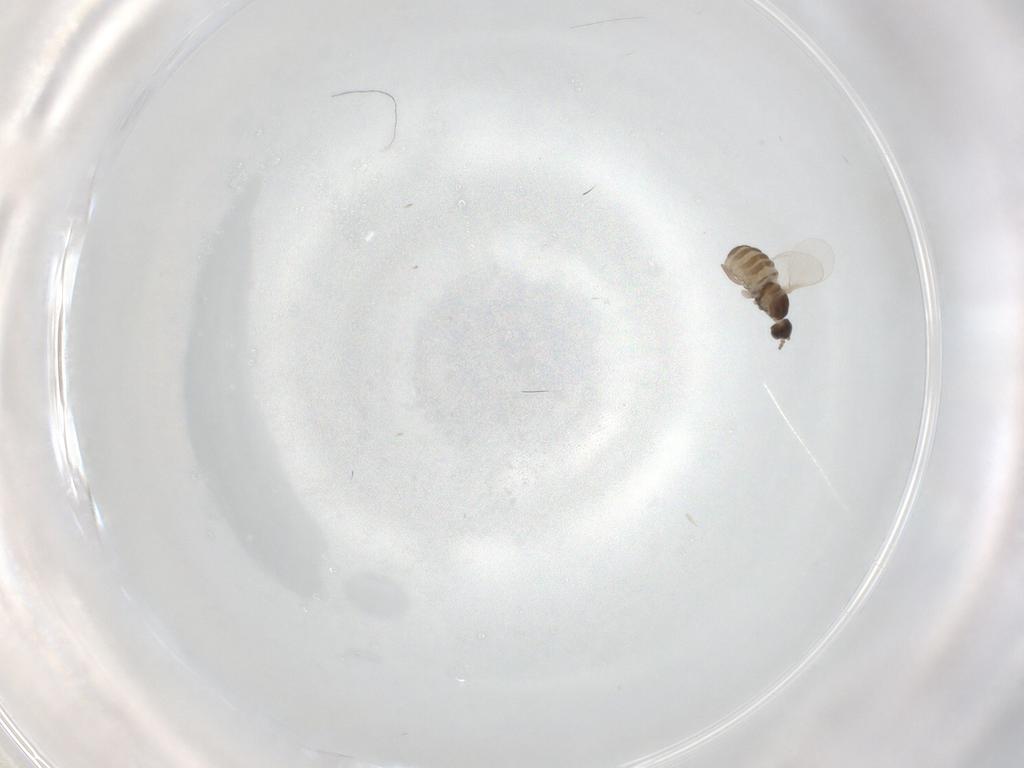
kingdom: Animalia
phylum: Arthropoda
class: Insecta
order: Diptera
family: Cecidomyiidae
